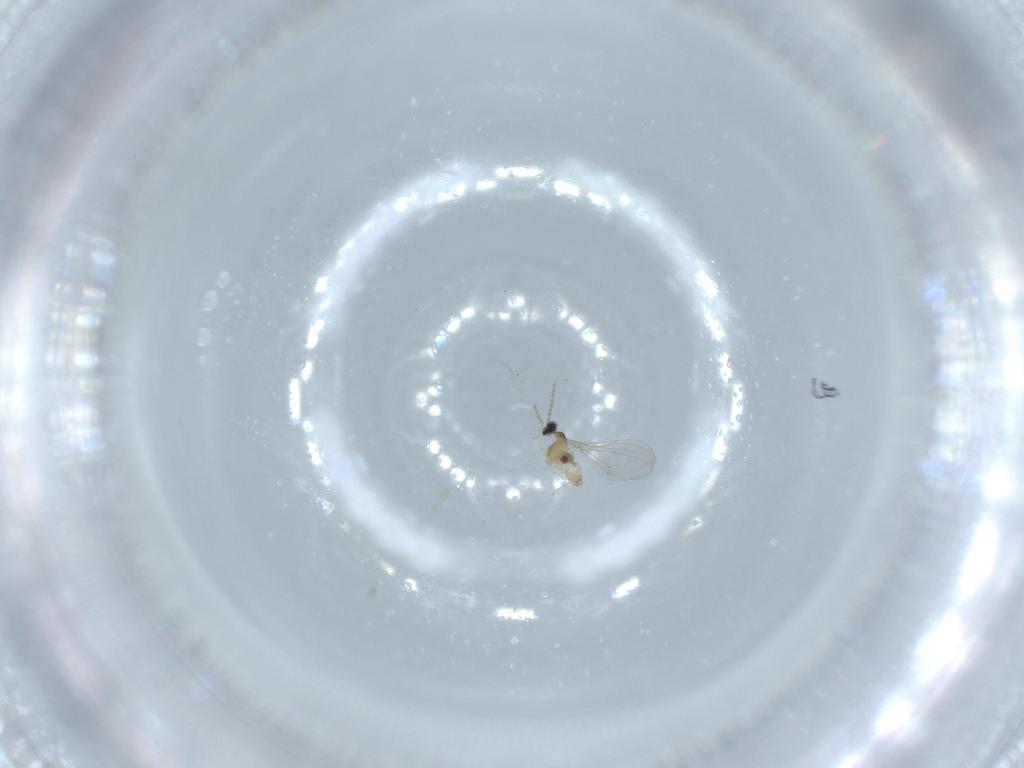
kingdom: Animalia
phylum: Arthropoda
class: Insecta
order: Diptera
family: Cecidomyiidae
